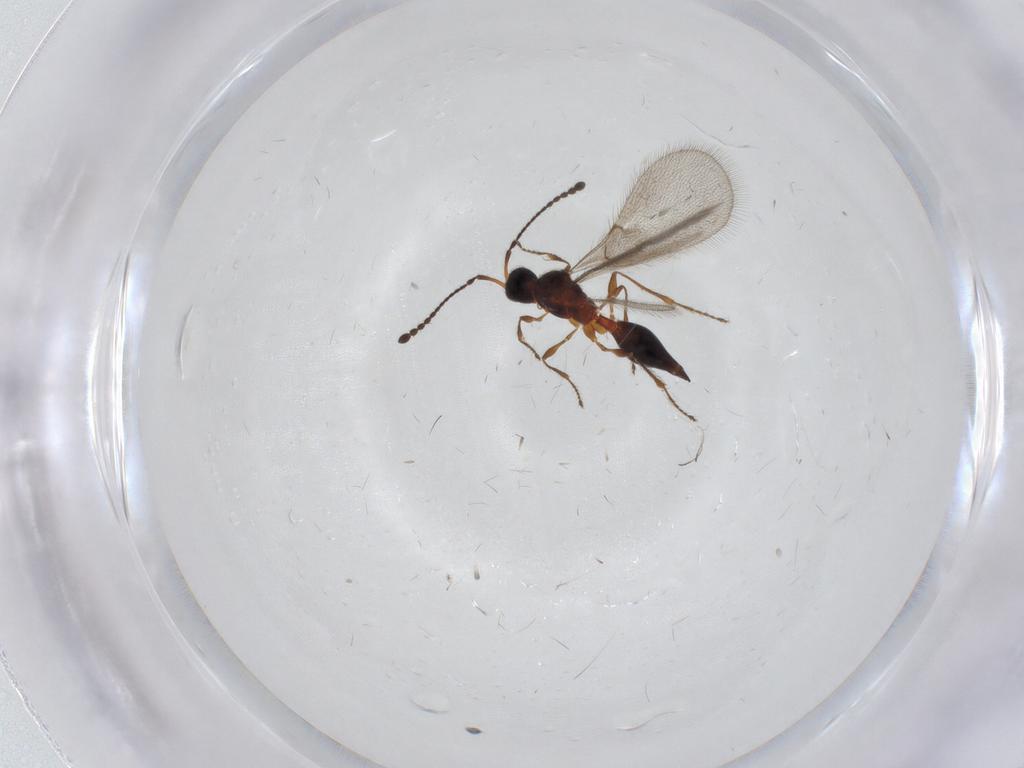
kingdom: Animalia
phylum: Arthropoda
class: Insecta
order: Hymenoptera
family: Diapriidae
